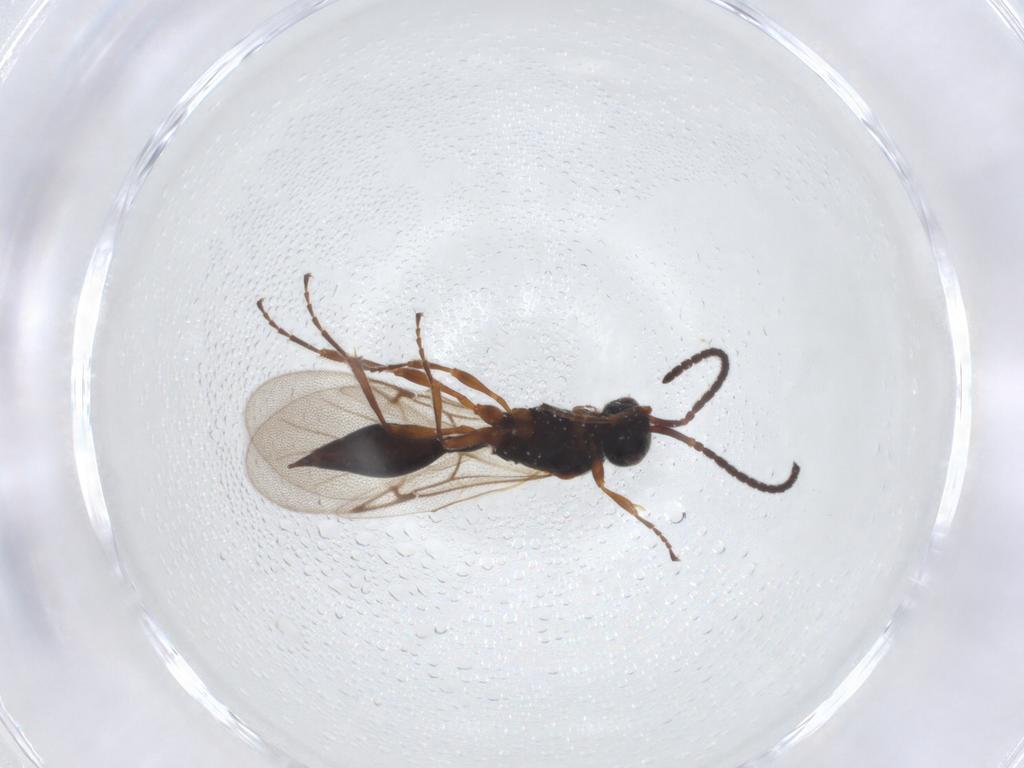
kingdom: Animalia
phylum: Arthropoda
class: Insecta
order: Hymenoptera
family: Diapriidae
